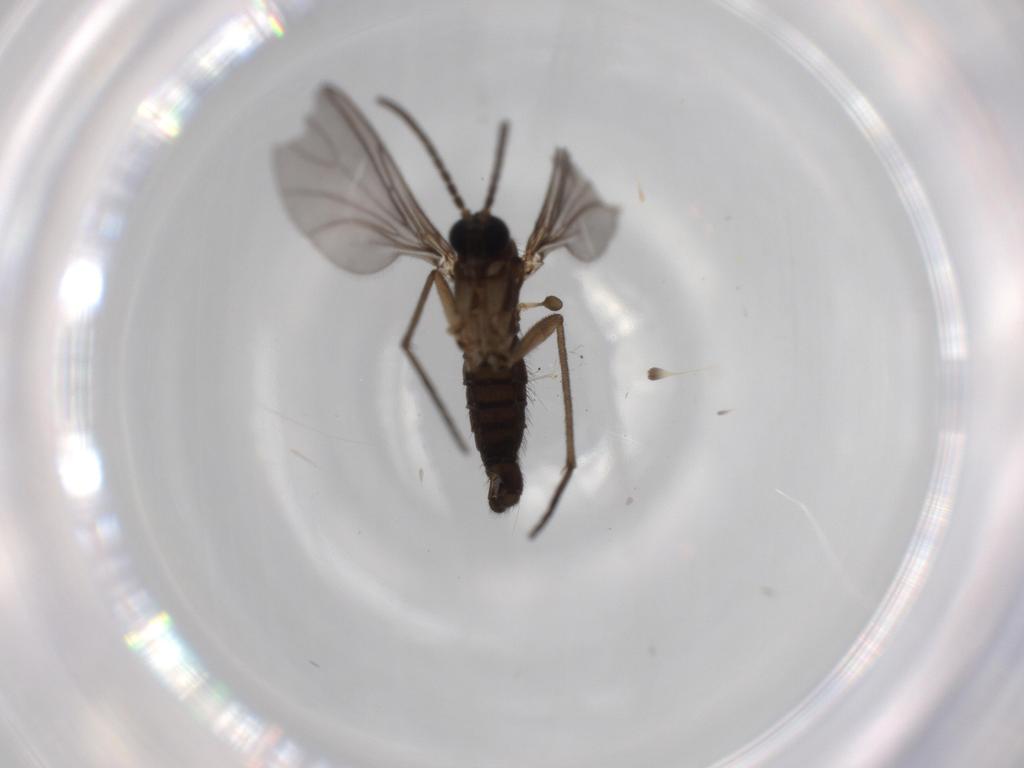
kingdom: Animalia
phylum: Arthropoda
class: Insecta
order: Diptera
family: Sciaridae
